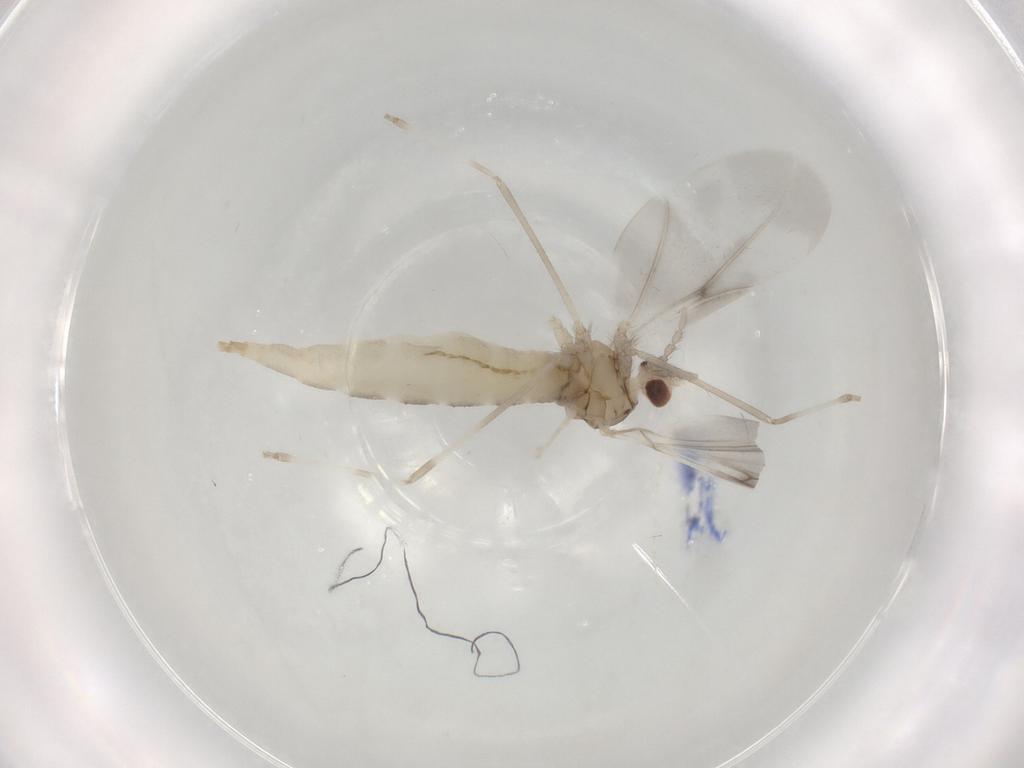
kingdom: Animalia
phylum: Arthropoda
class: Insecta
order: Diptera
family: Cecidomyiidae
